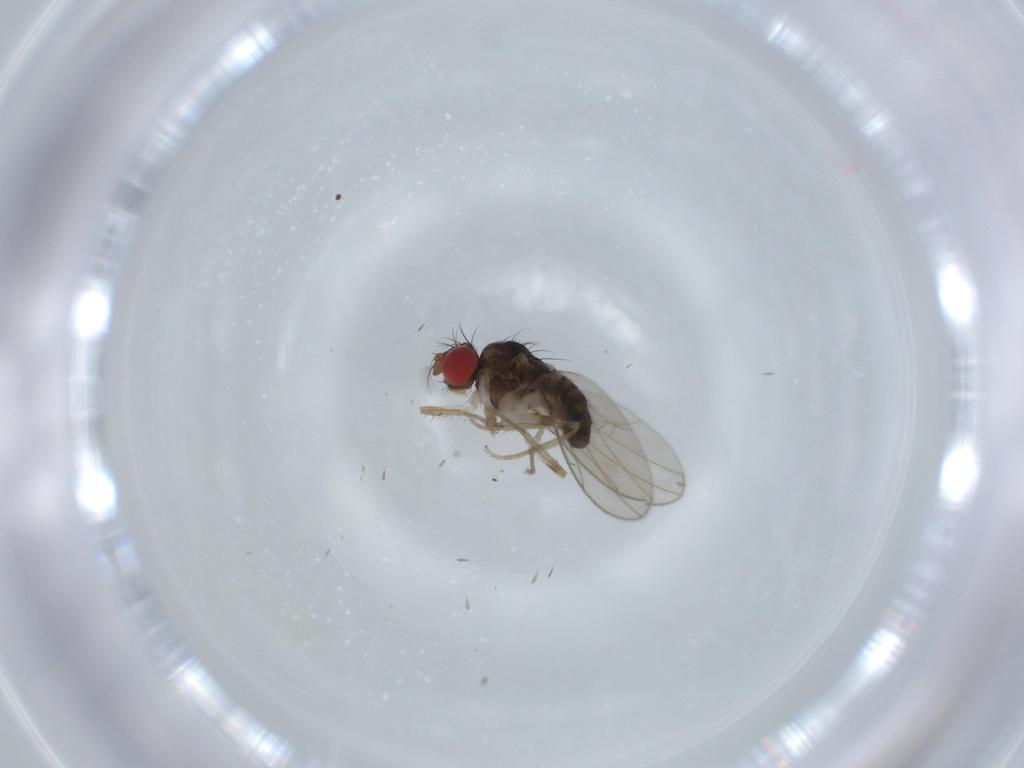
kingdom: Animalia
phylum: Arthropoda
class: Insecta
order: Diptera
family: Drosophilidae
